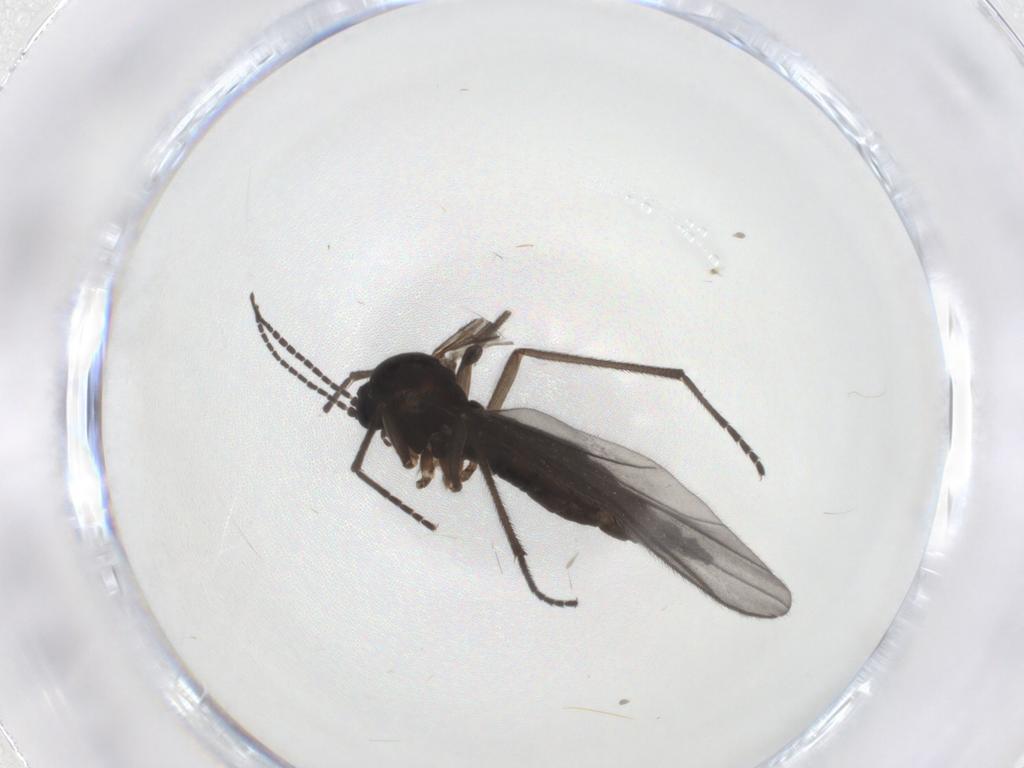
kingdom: Animalia
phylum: Arthropoda
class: Insecta
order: Diptera
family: Sciaridae
